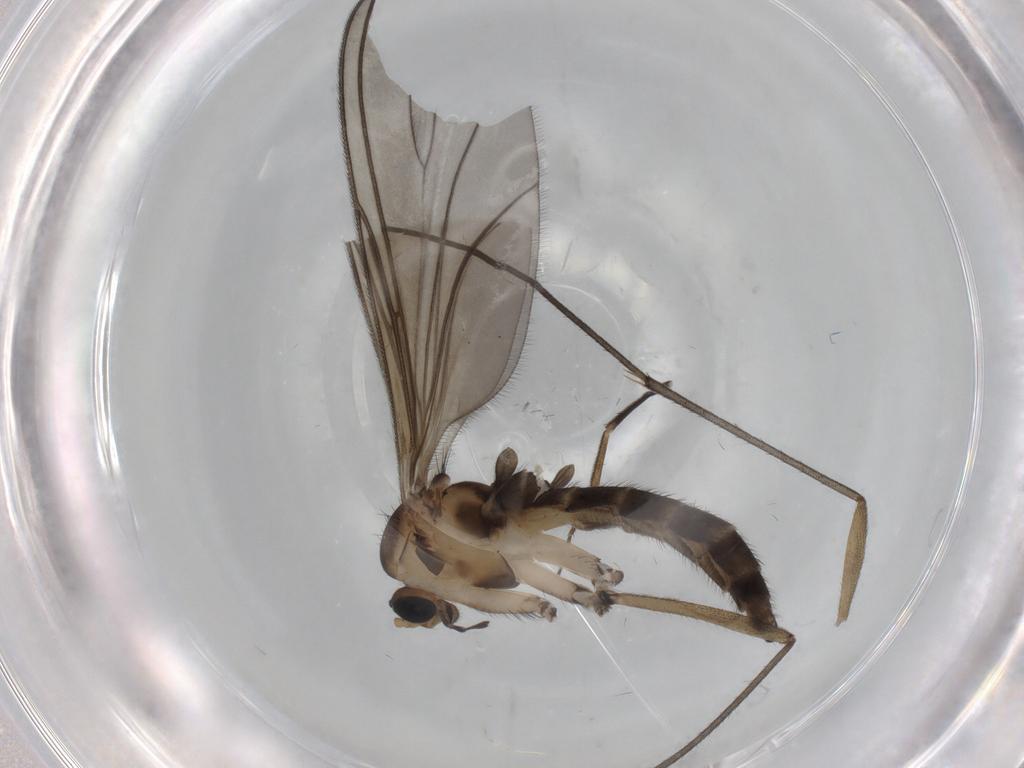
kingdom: Animalia
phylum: Arthropoda
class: Insecta
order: Diptera
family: Sciaridae
